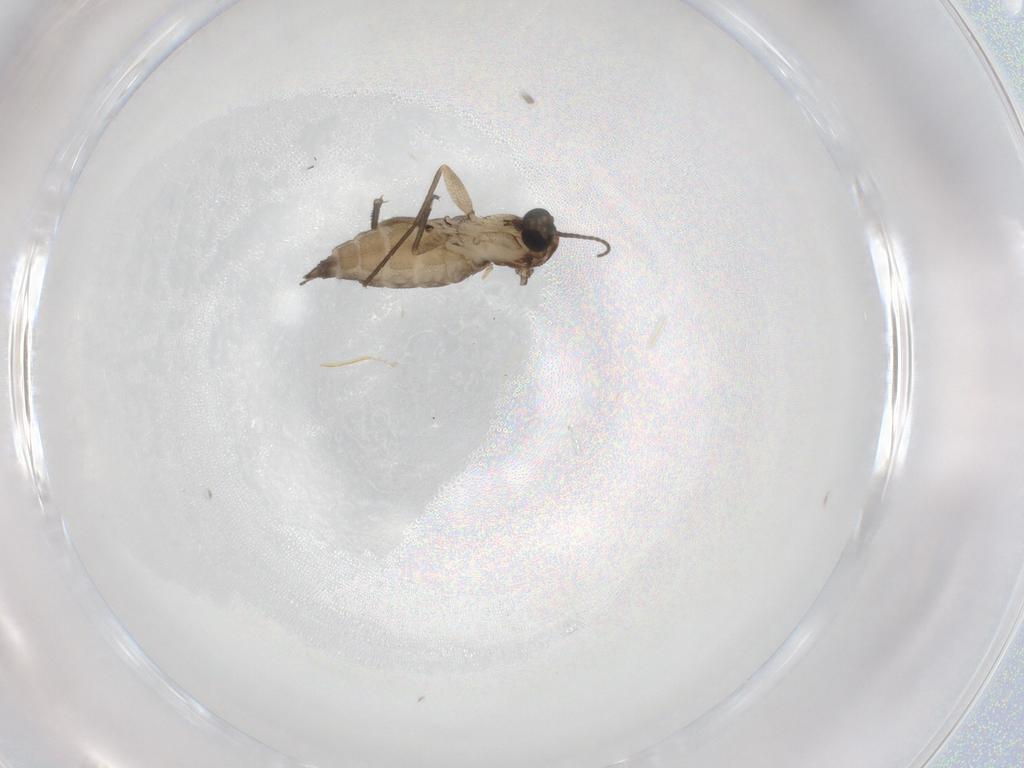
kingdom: Animalia
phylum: Arthropoda
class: Insecta
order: Diptera
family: Sciaridae
